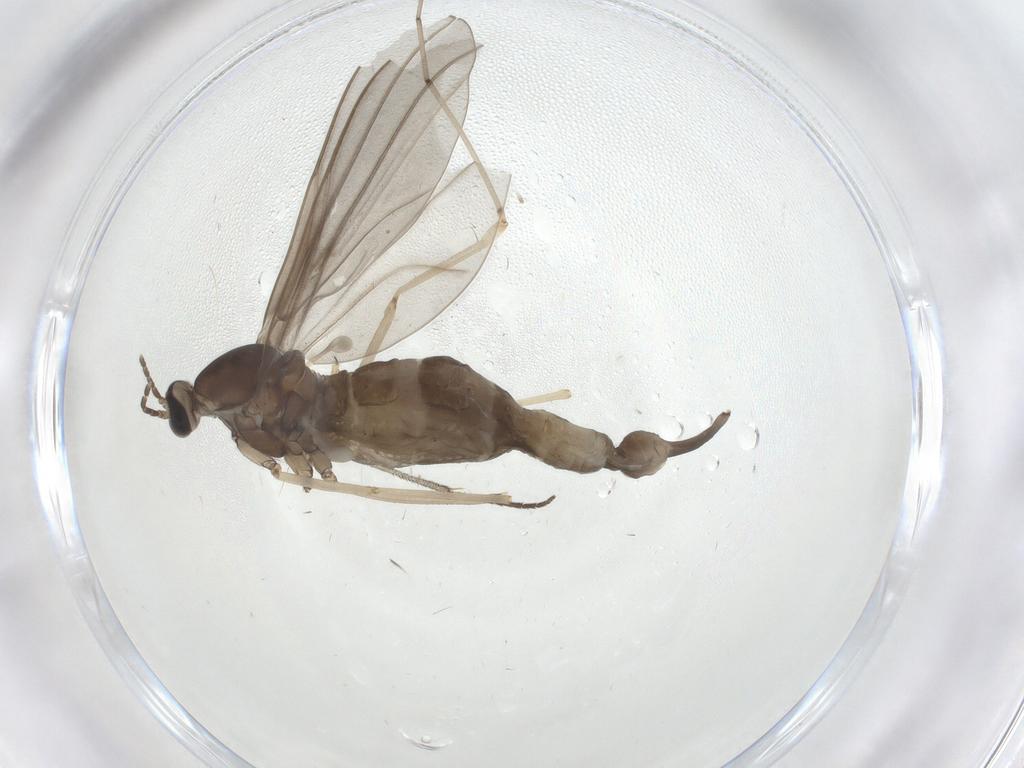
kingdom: Animalia
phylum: Arthropoda
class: Insecta
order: Diptera
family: Cecidomyiidae
